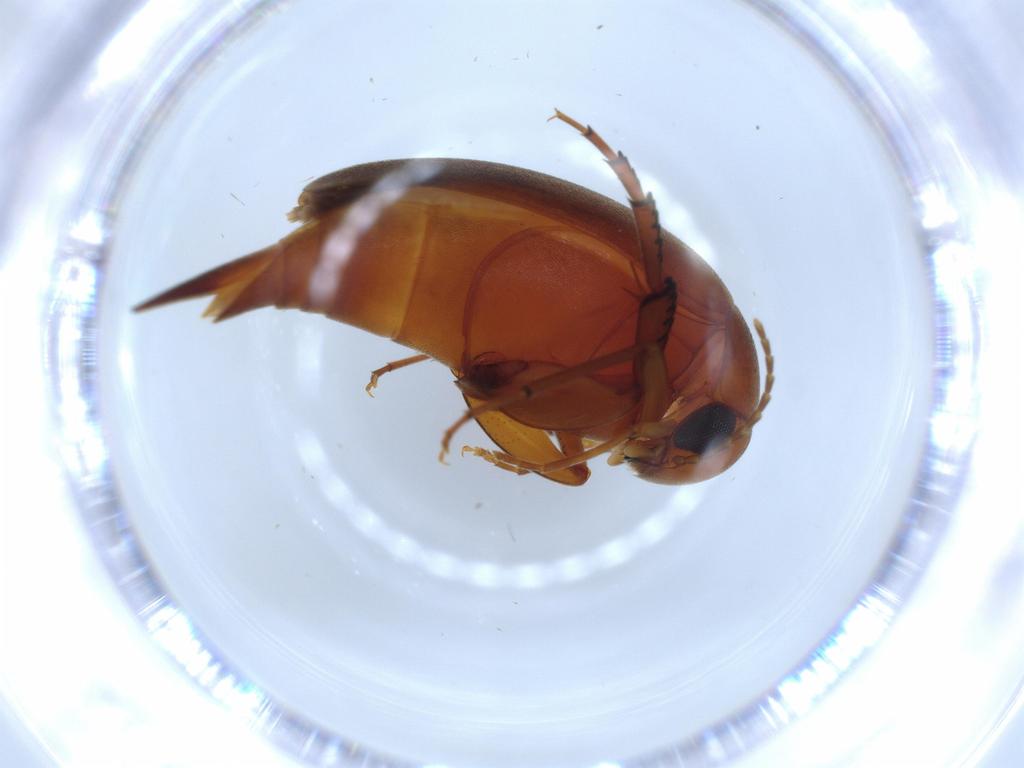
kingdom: Animalia
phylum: Arthropoda
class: Insecta
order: Coleoptera
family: Mordellidae
